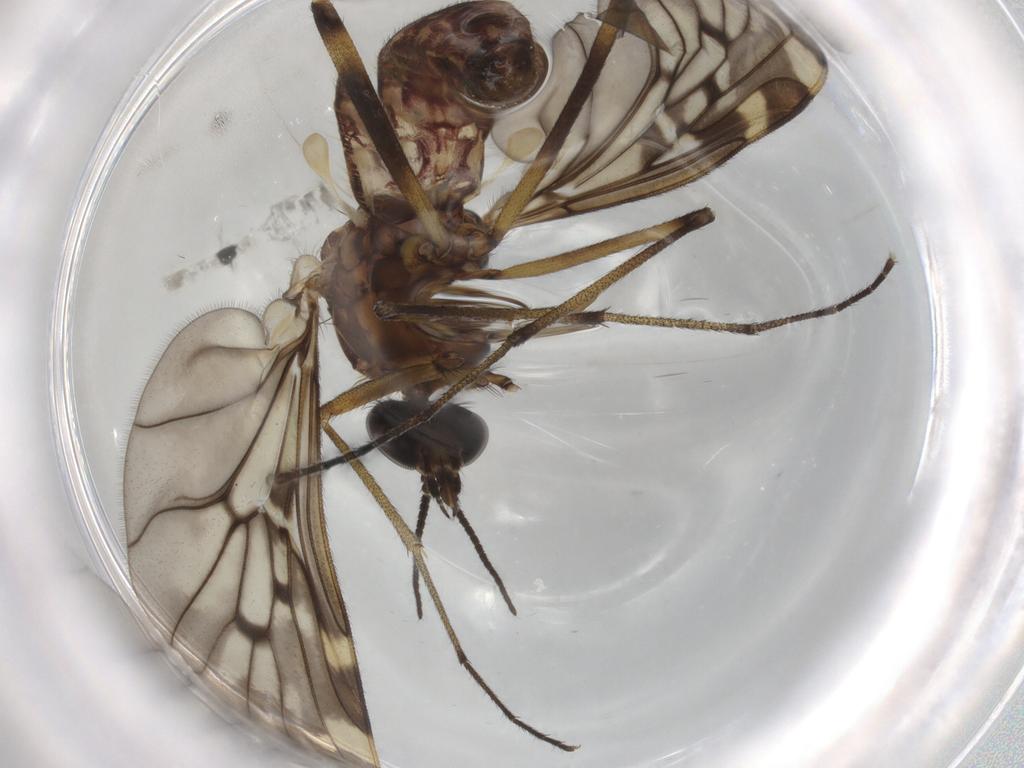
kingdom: Animalia
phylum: Arthropoda
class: Insecta
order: Diptera
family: Chironomidae
